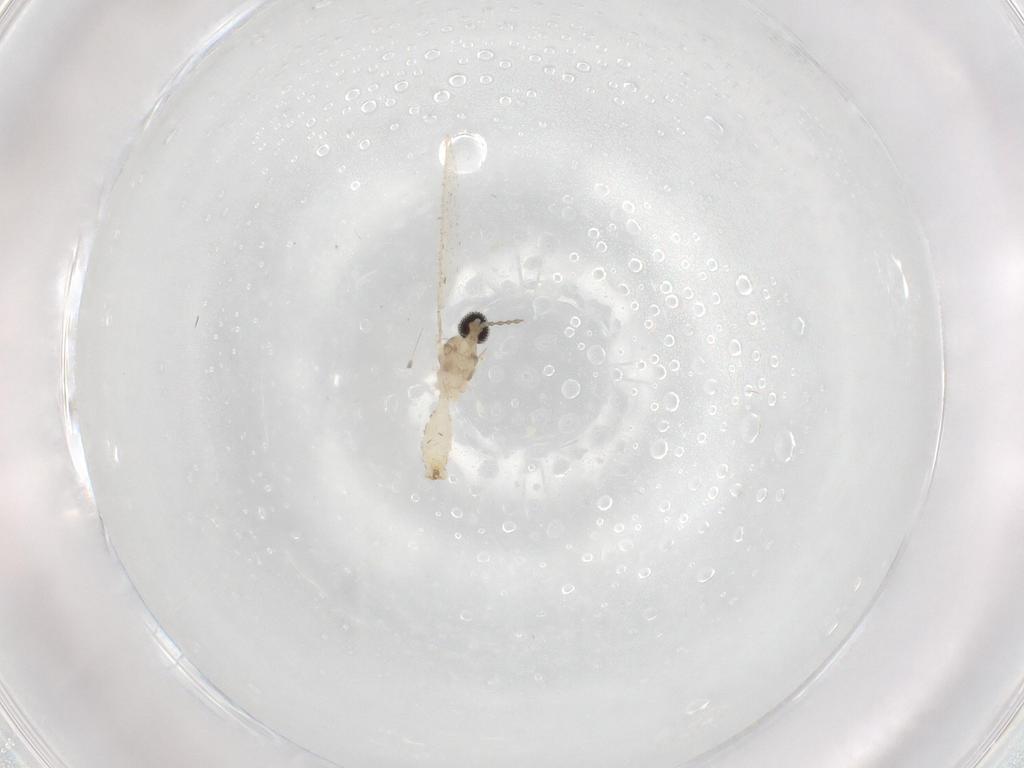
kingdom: Animalia
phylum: Arthropoda
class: Insecta
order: Diptera
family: Cecidomyiidae
